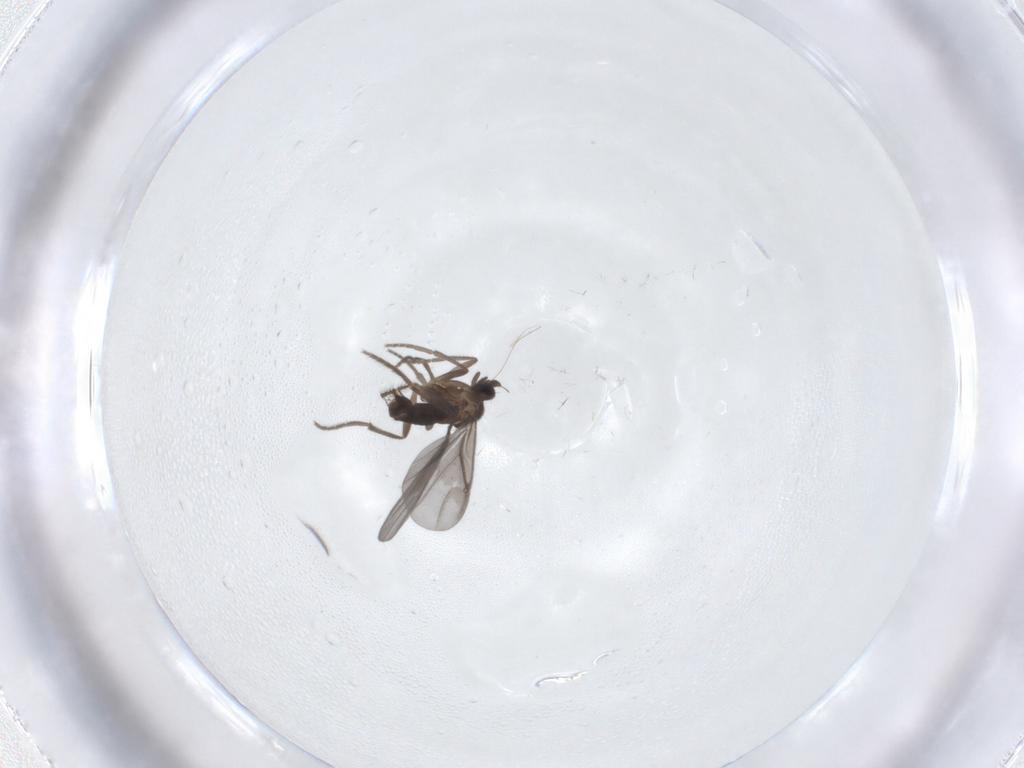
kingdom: Animalia
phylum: Arthropoda
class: Insecta
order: Diptera
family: Phoridae
